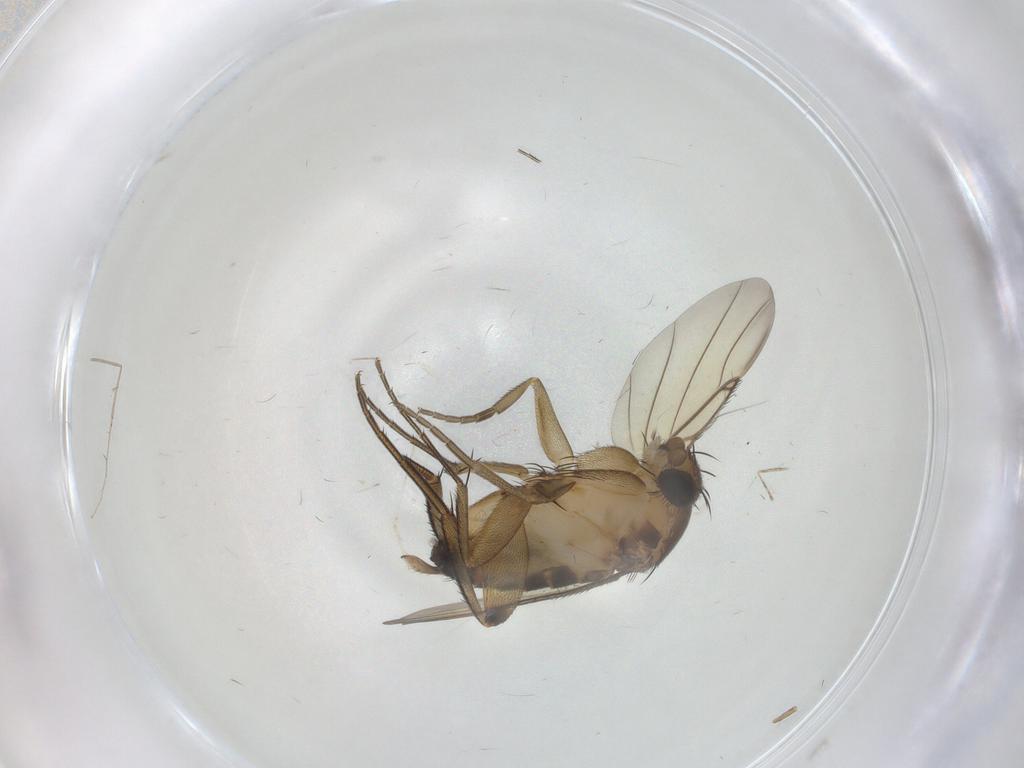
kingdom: Animalia
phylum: Arthropoda
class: Insecta
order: Diptera
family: Phoridae
